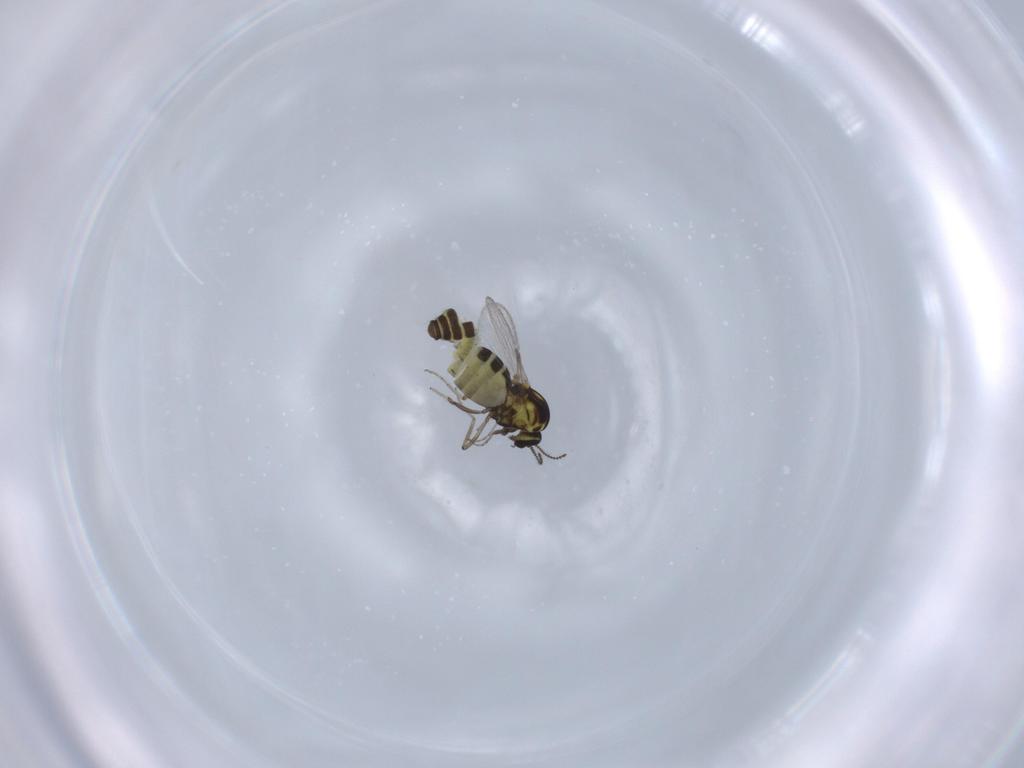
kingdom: Animalia
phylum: Arthropoda
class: Insecta
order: Diptera
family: Ceratopogonidae
